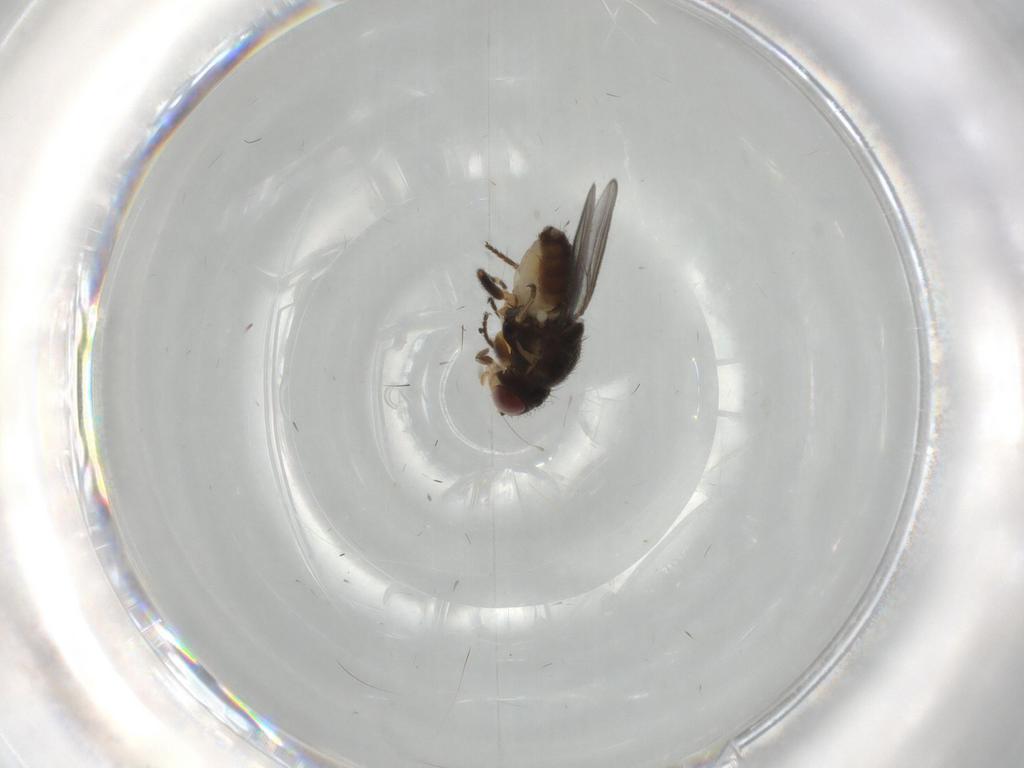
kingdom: Animalia
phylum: Arthropoda
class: Insecta
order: Diptera
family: Chloropidae
